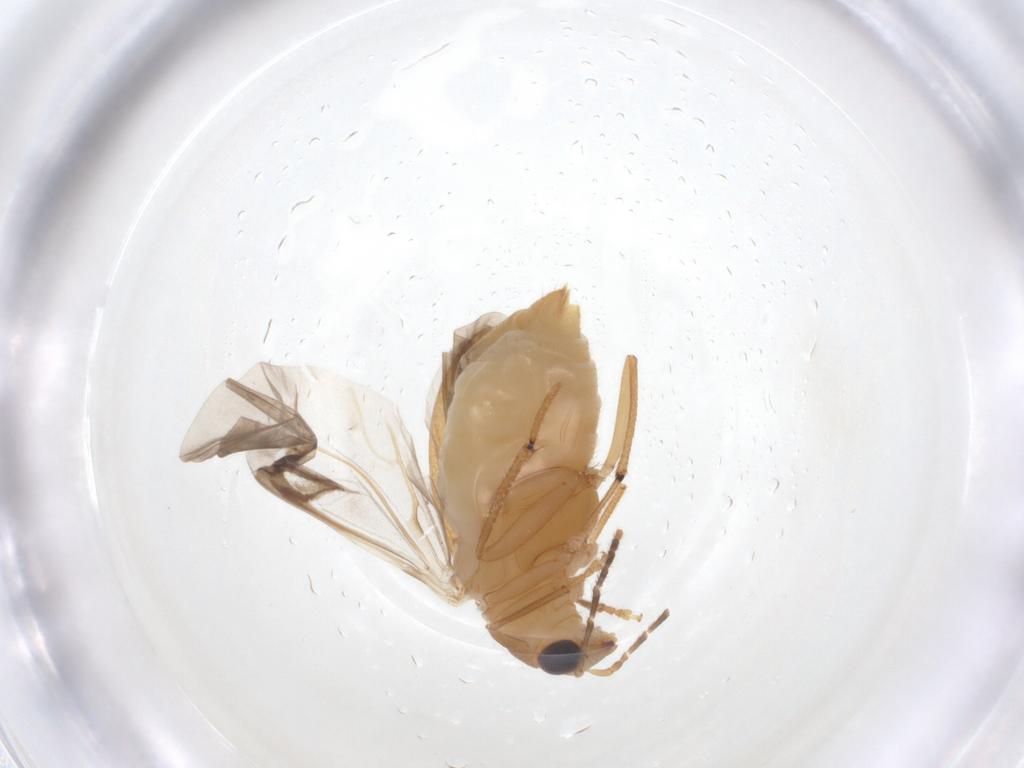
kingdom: Animalia
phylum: Arthropoda
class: Insecta
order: Coleoptera
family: Chrysomelidae
